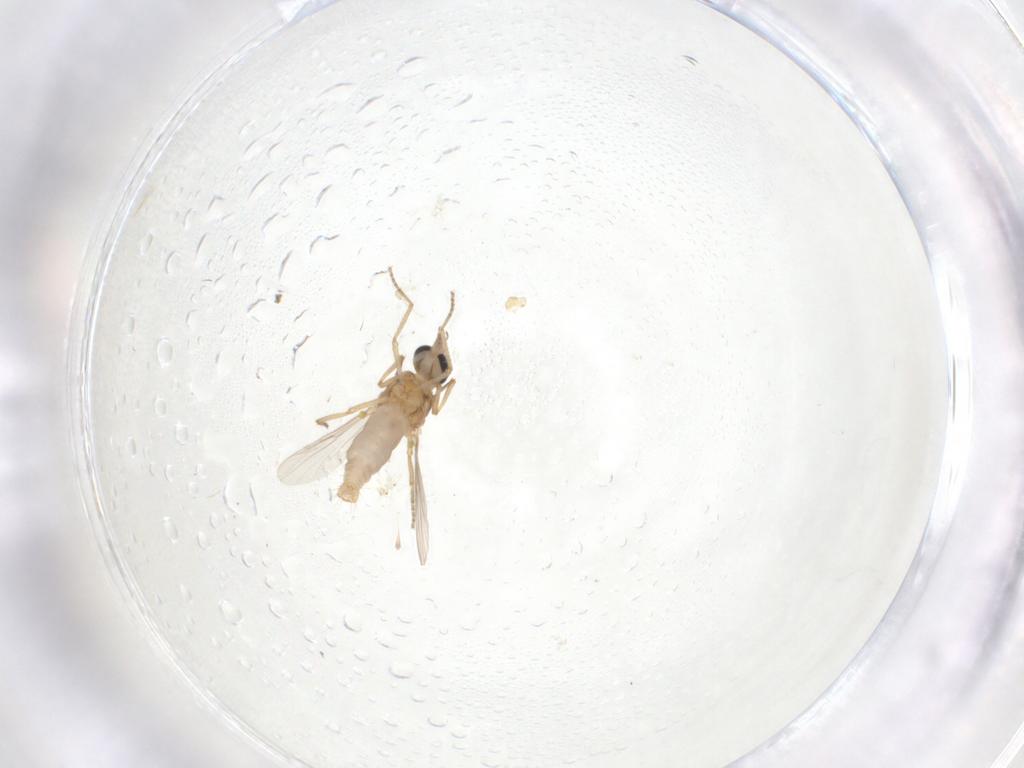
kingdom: Animalia
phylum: Arthropoda
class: Insecta
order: Diptera
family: Ceratopogonidae
